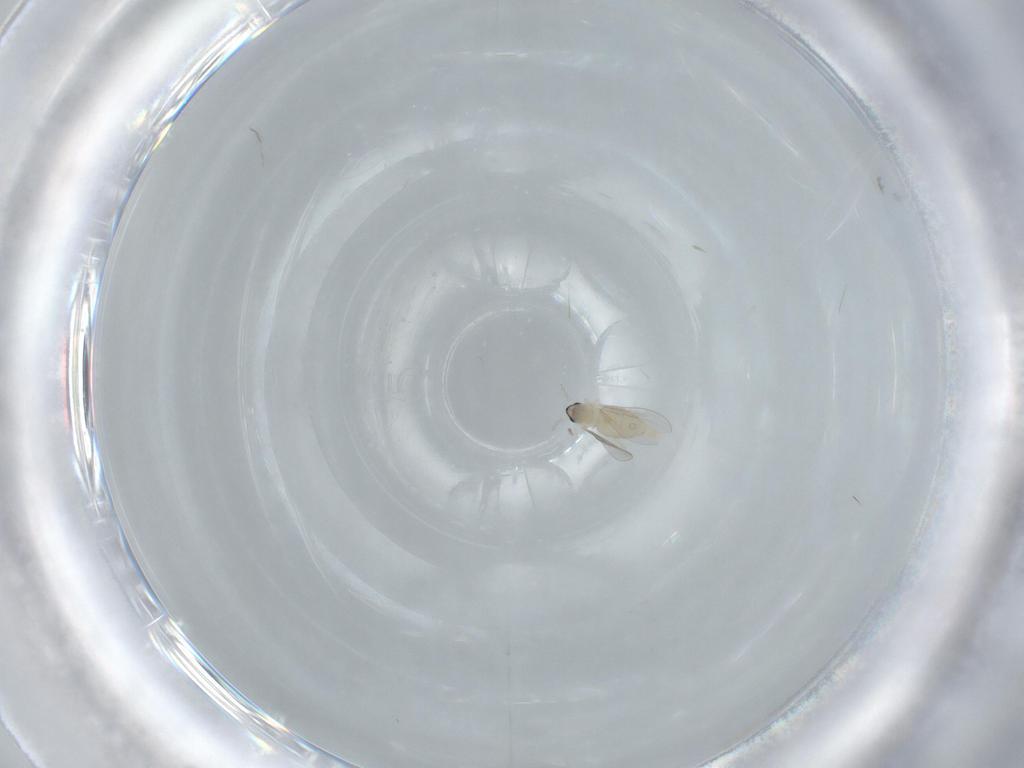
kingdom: Animalia
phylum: Arthropoda
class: Insecta
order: Diptera
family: Cecidomyiidae
